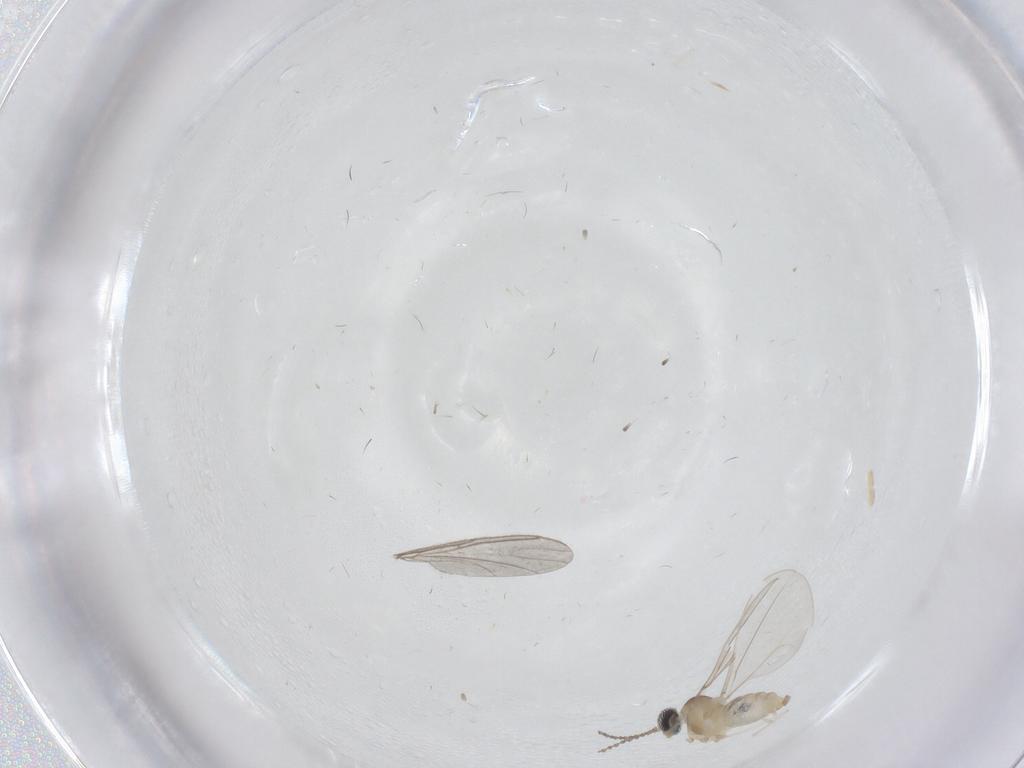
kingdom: Animalia
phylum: Arthropoda
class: Insecta
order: Diptera
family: Sciaridae
